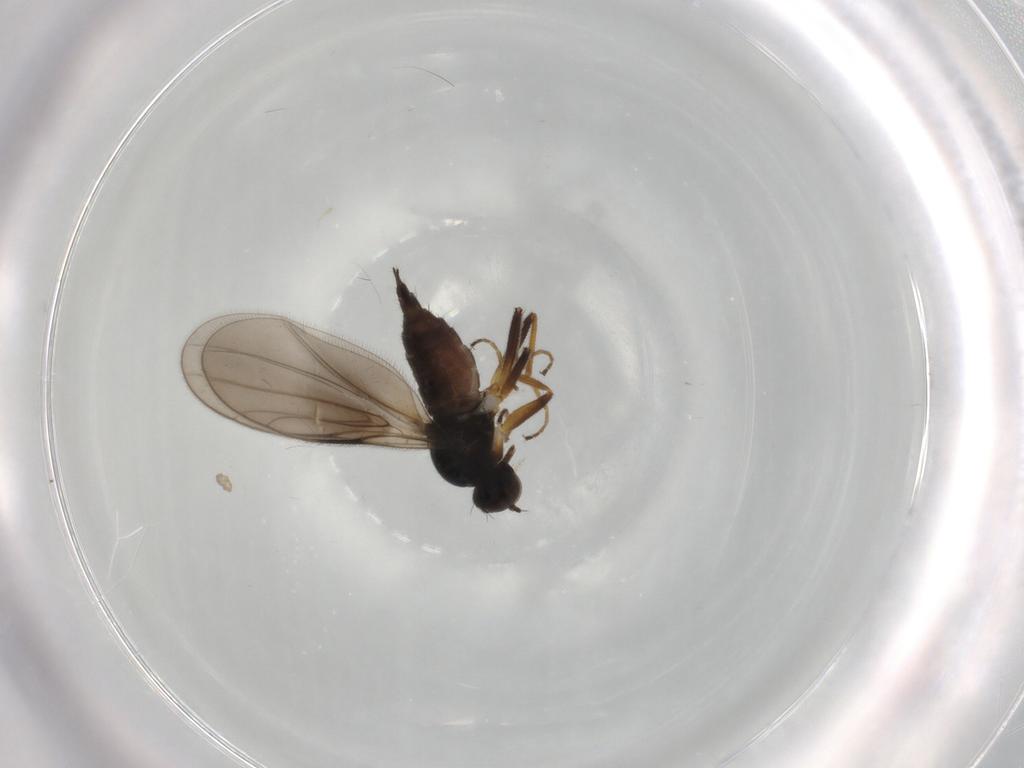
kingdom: Animalia
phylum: Arthropoda
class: Insecta
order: Diptera
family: Hybotidae
